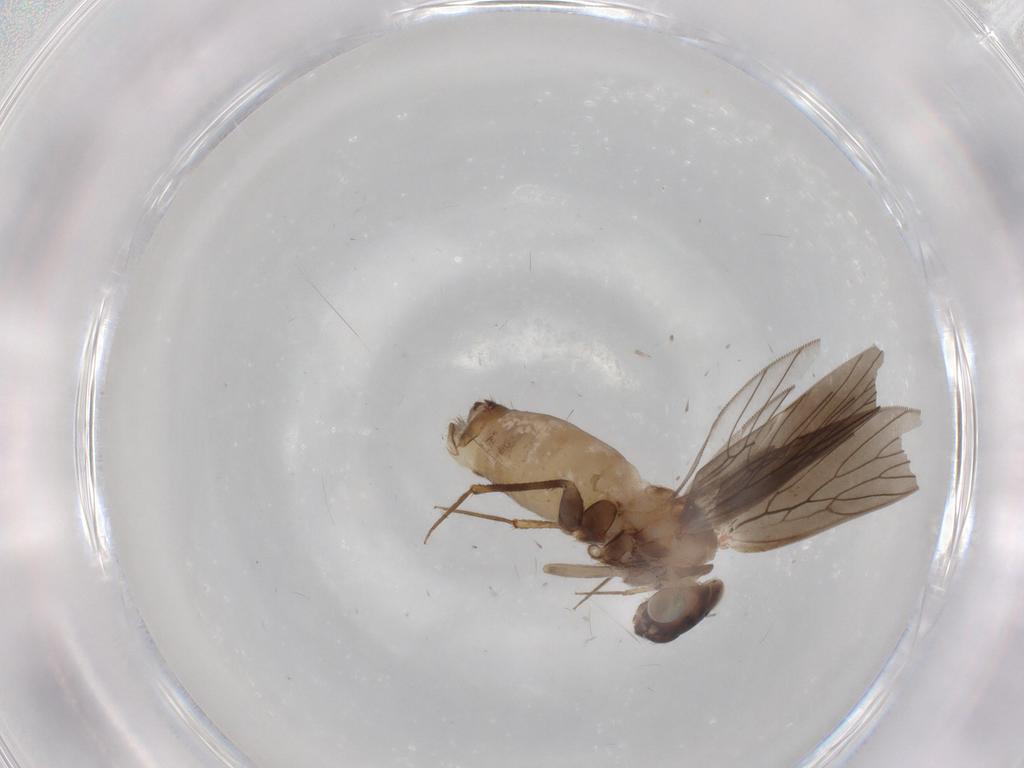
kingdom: Animalia
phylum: Arthropoda
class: Insecta
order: Psocodea
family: Lepidopsocidae
